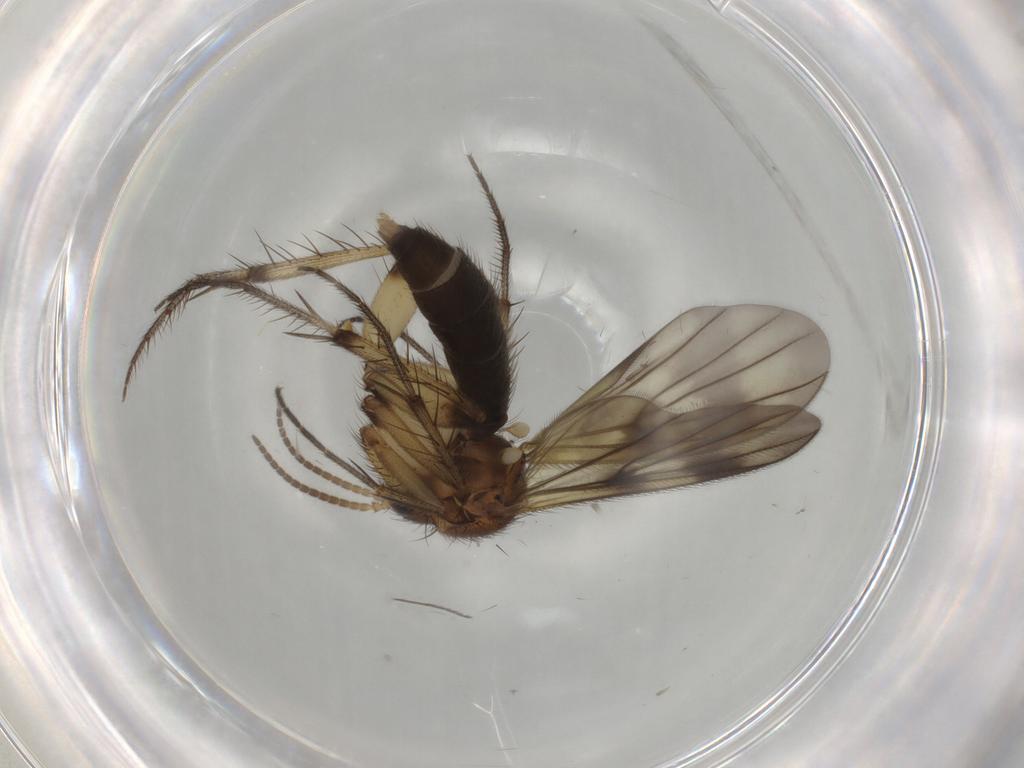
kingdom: Animalia
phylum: Arthropoda
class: Insecta
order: Diptera
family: Mycetophilidae
